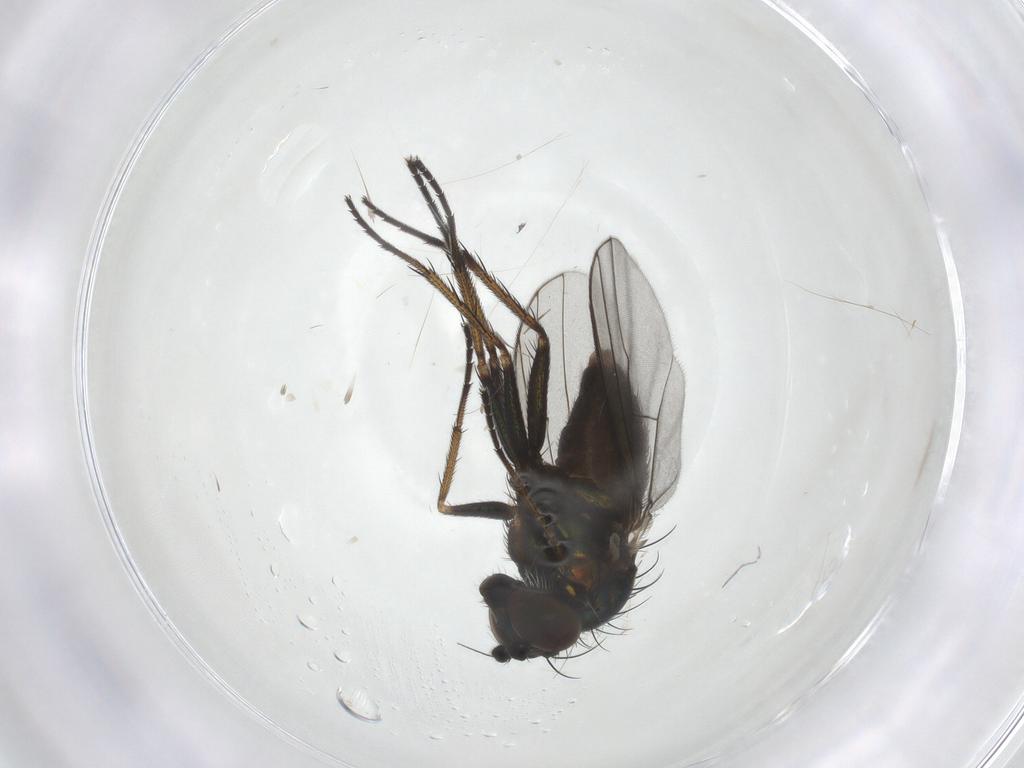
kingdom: Animalia
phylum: Arthropoda
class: Insecta
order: Diptera
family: Dolichopodidae
